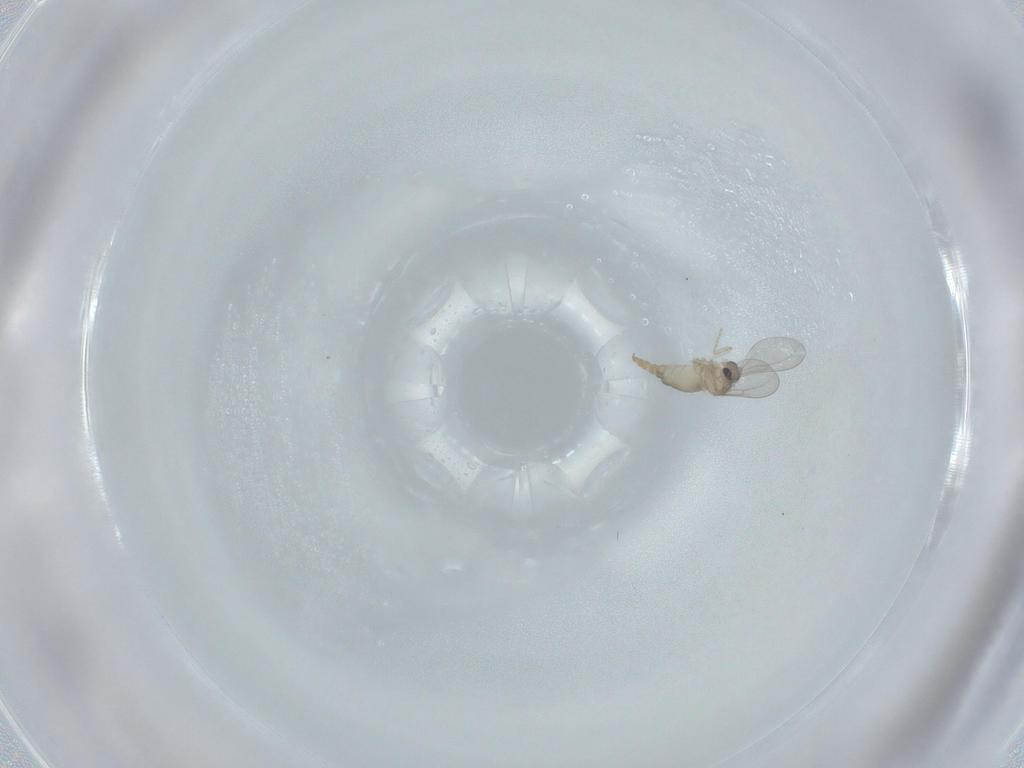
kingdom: Animalia
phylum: Arthropoda
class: Insecta
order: Diptera
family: Cecidomyiidae
